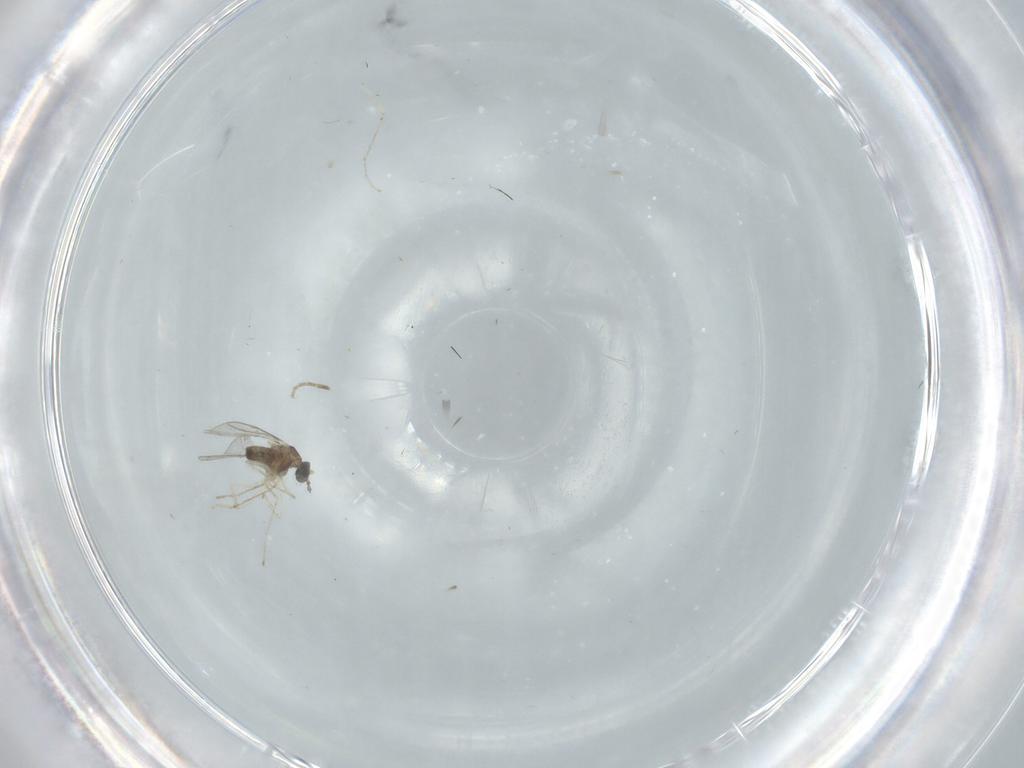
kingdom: Animalia
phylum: Arthropoda
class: Insecta
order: Diptera
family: Cecidomyiidae
